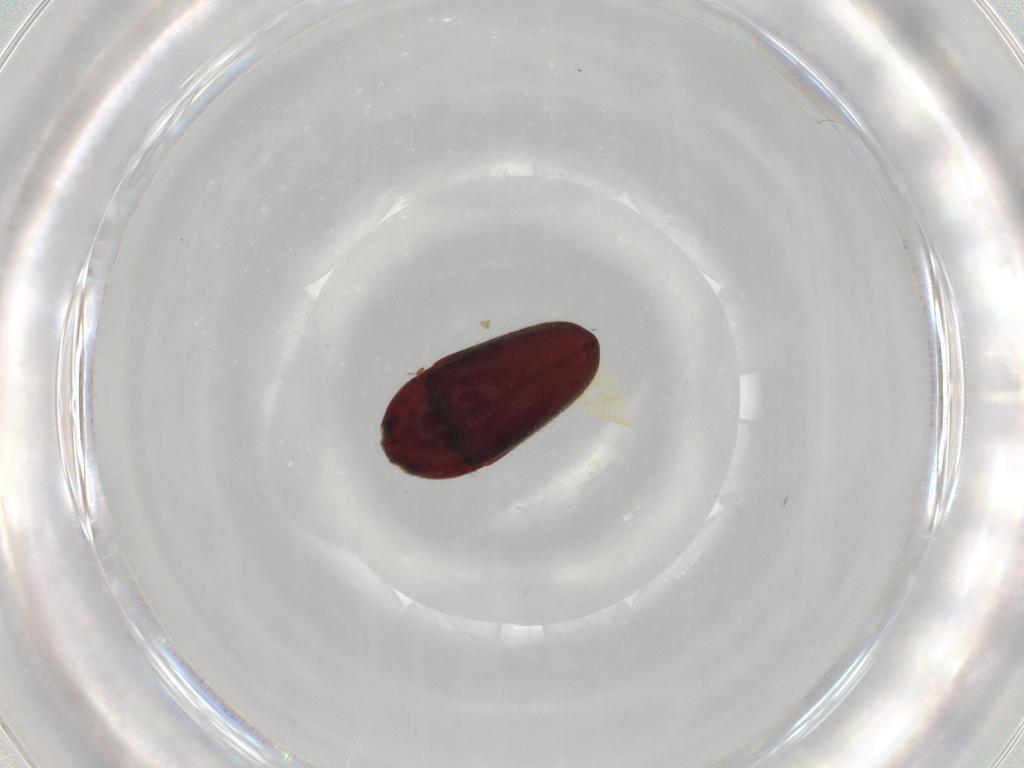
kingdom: Animalia
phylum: Arthropoda
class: Insecta
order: Coleoptera
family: Throscidae
